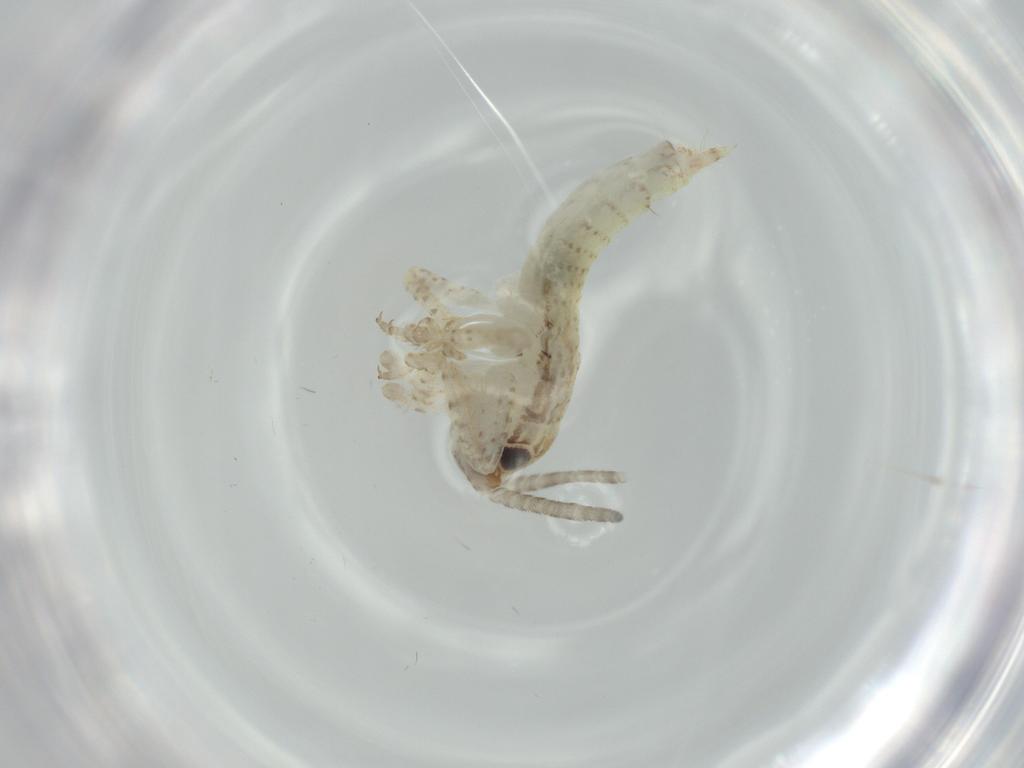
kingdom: Animalia
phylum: Arthropoda
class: Insecta
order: Orthoptera
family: Gryllidae
